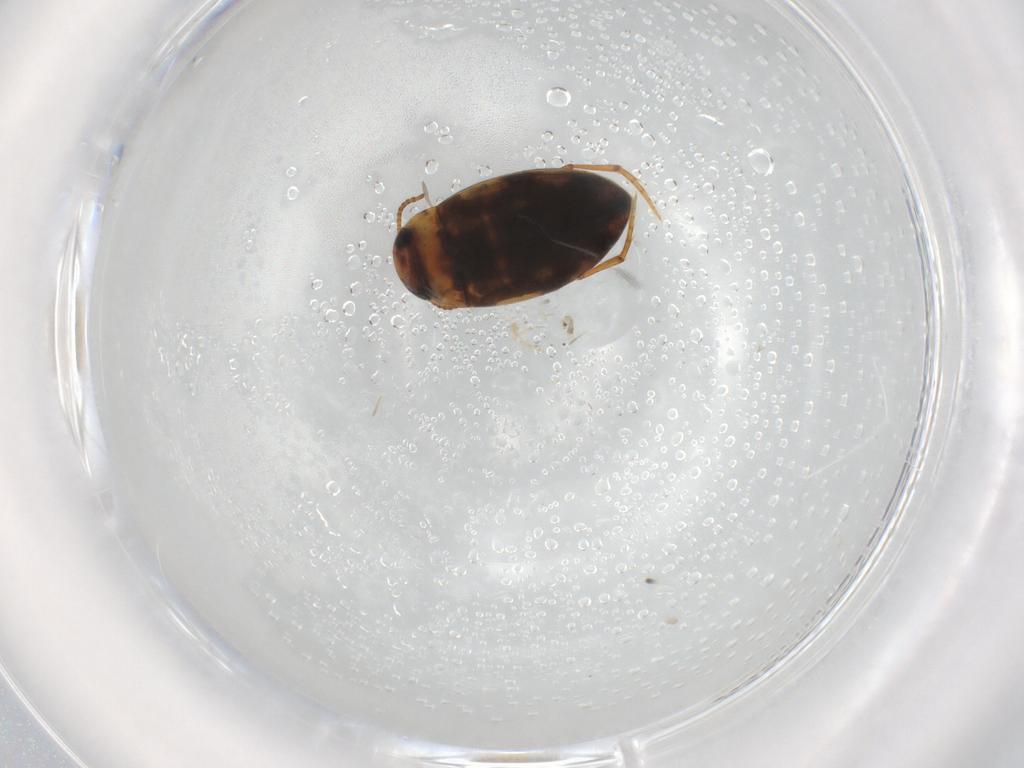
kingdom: Animalia
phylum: Arthropoda
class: Insecta
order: Coleoptera
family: Dytiscidae
